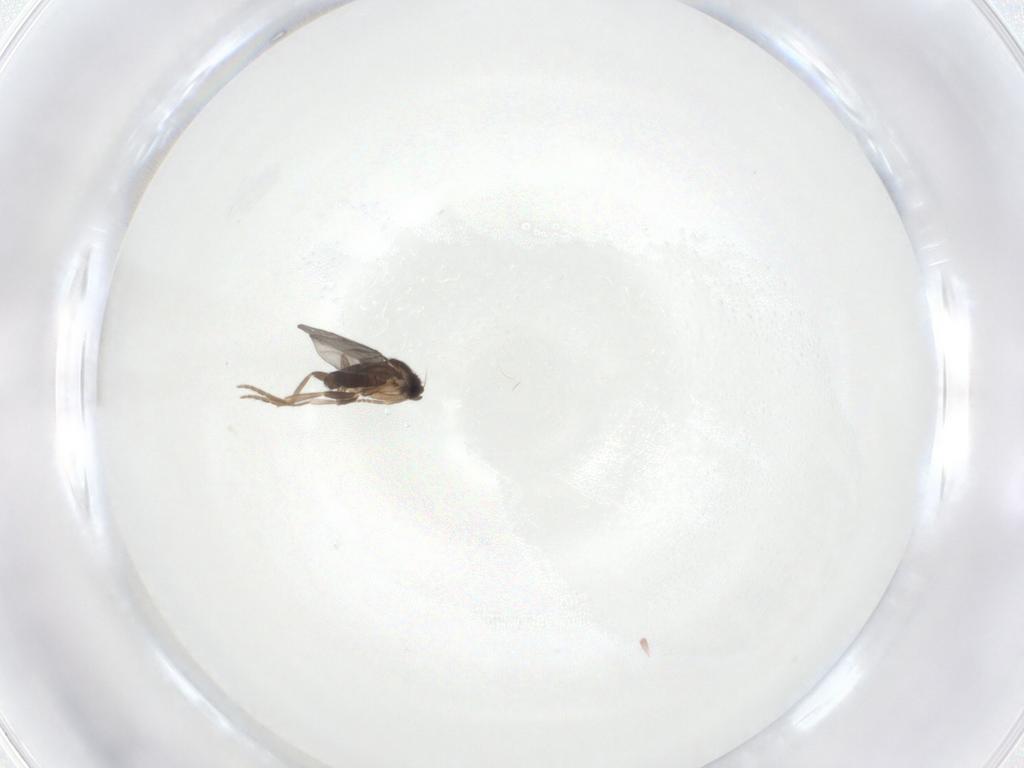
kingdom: Animalia
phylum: Arthropoda
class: Insecta
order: Diptera
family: Phoridae
